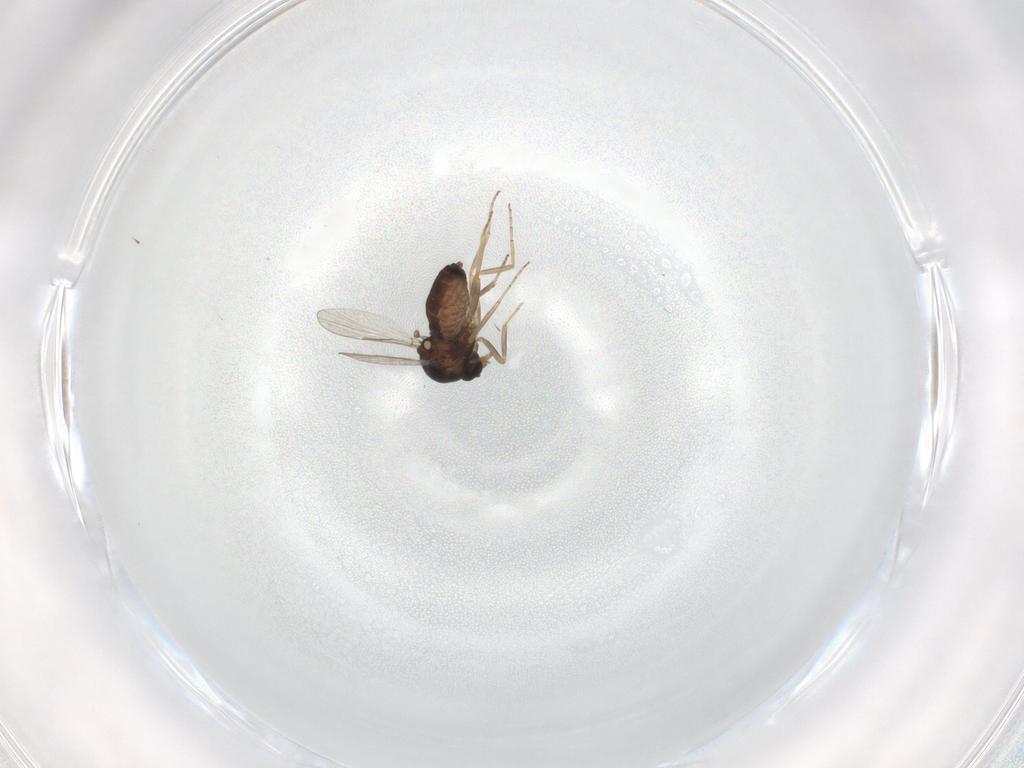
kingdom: Animalia
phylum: Arthropoda
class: Insecta
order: Diptera
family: Ceratopogonidae
